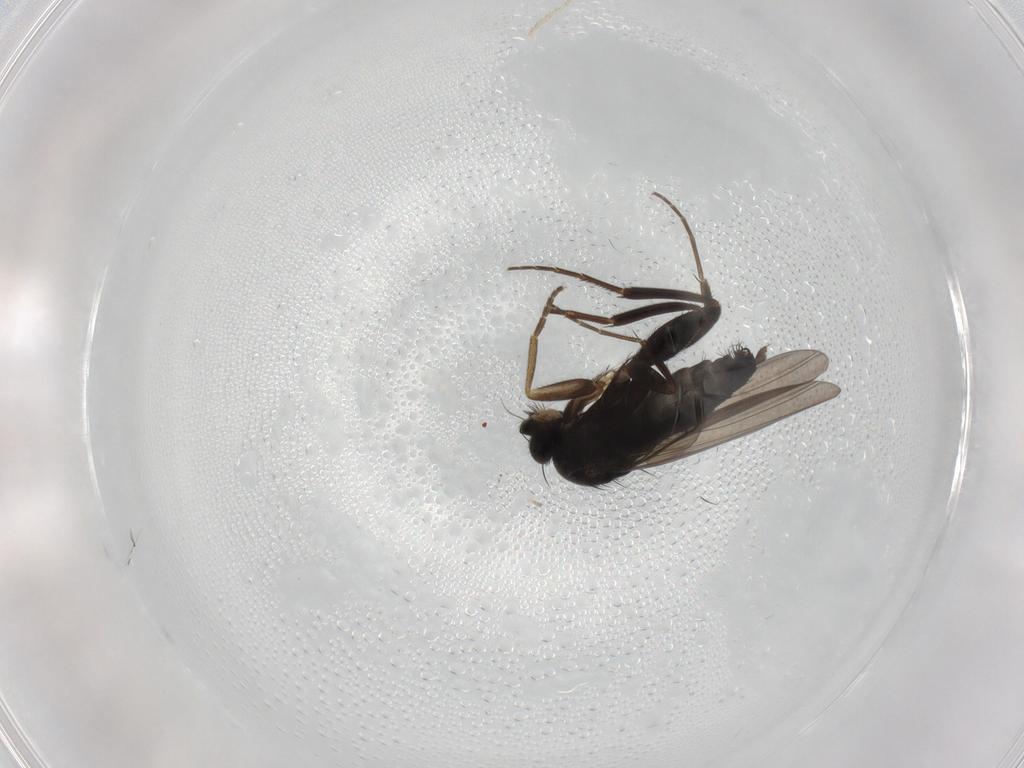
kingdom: Animalia
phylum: Arthropoda
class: Insecta
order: Diptera
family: Phoridae
